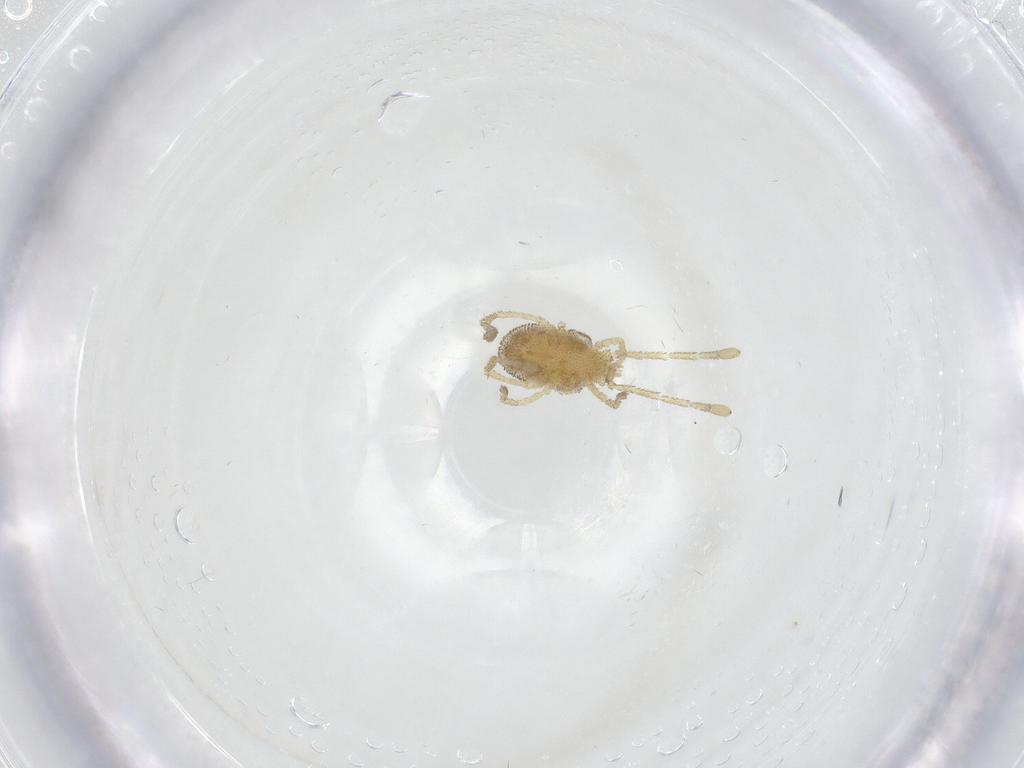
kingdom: Animalia
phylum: Arthropoda
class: Arachnida
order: Trombidiformes
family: Smarididae
